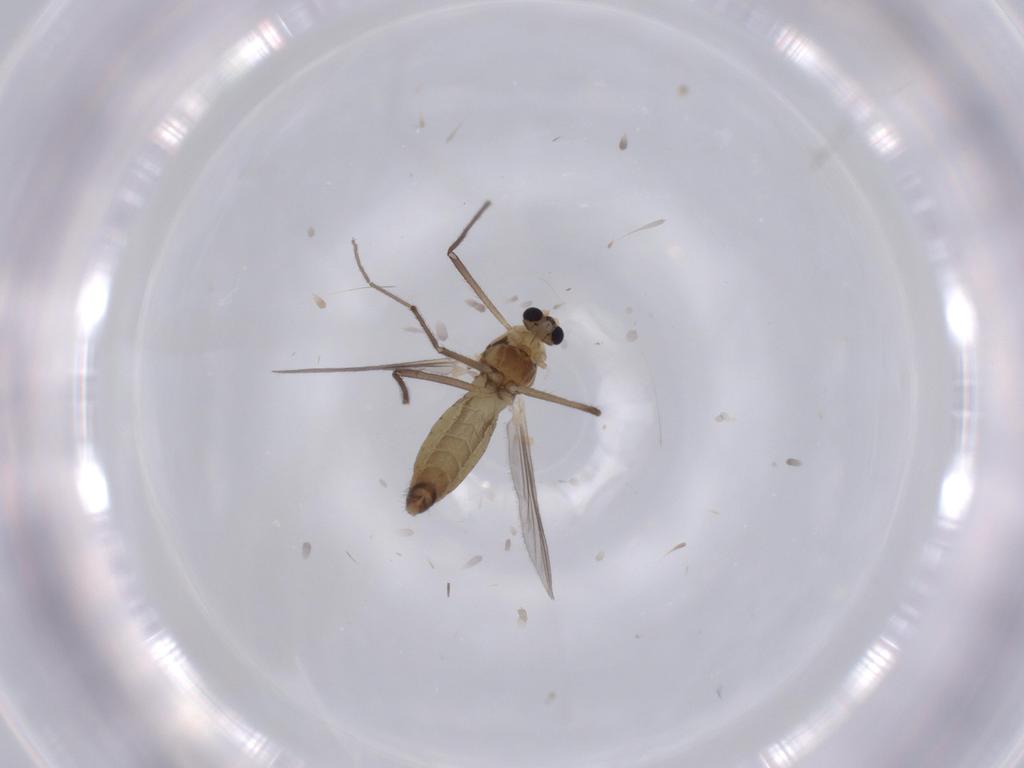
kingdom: Animalia
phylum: Arthropoda
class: Insecta
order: Diptera
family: Ceratopogonidae
